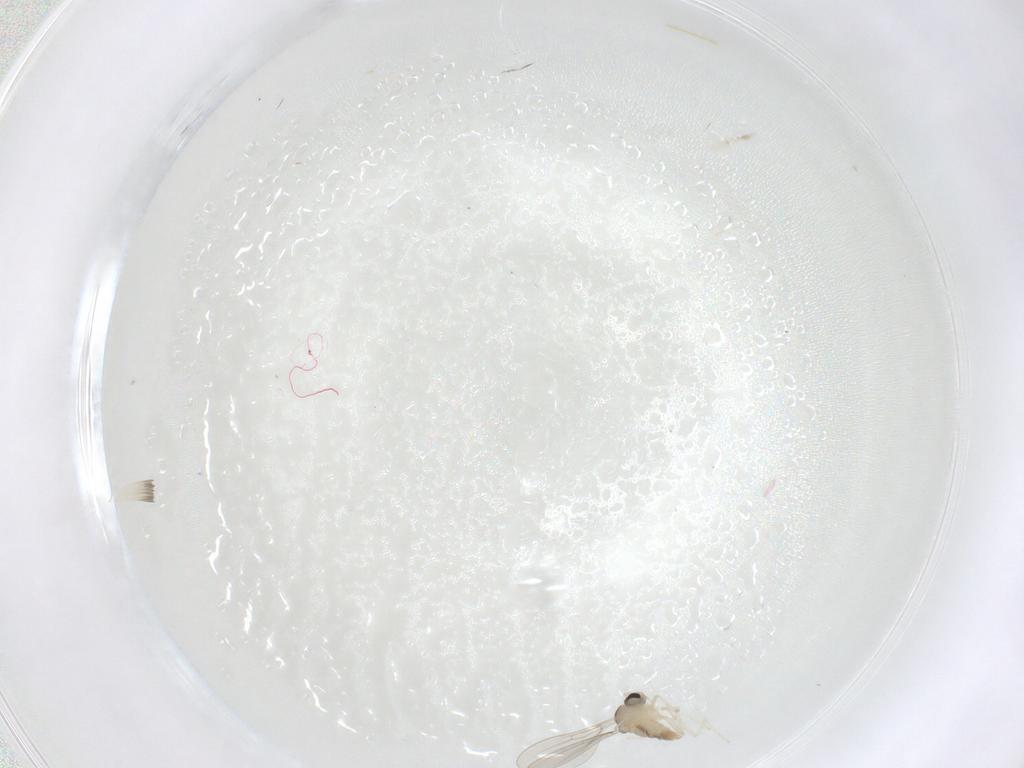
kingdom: Animalia
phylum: Arthropoda
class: Insecta
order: Diptera
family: Cecidomyiidae
